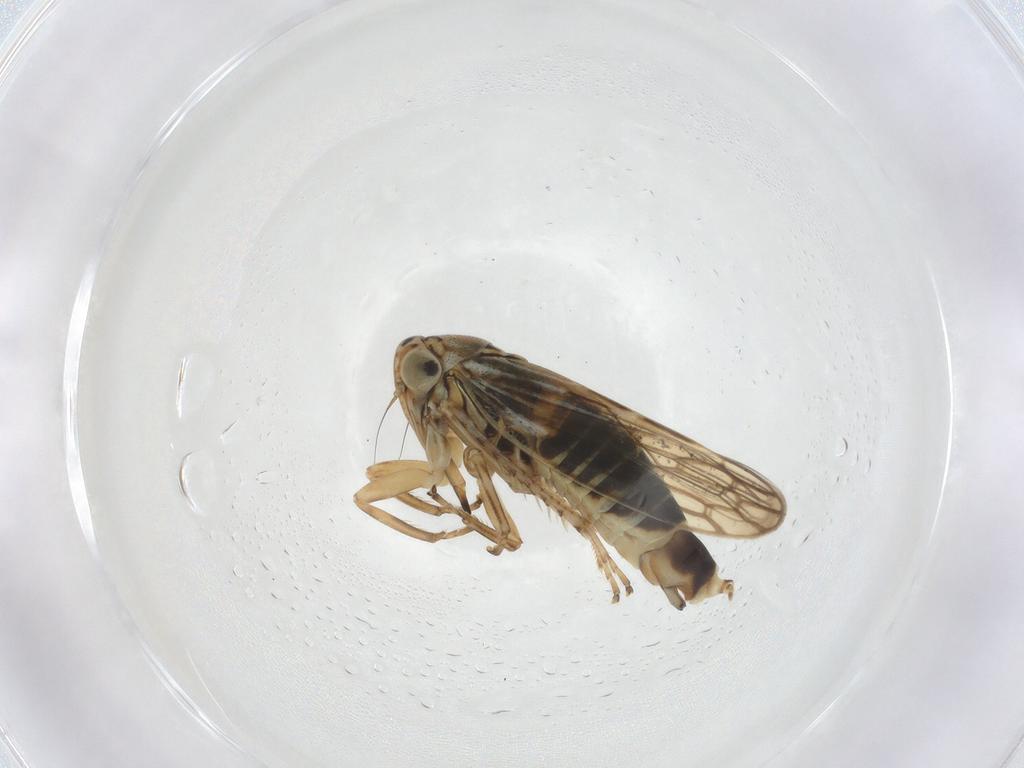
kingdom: Animalia
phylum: Arthropoda
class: Insecta
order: Hemiptera
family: Cicadellidae
